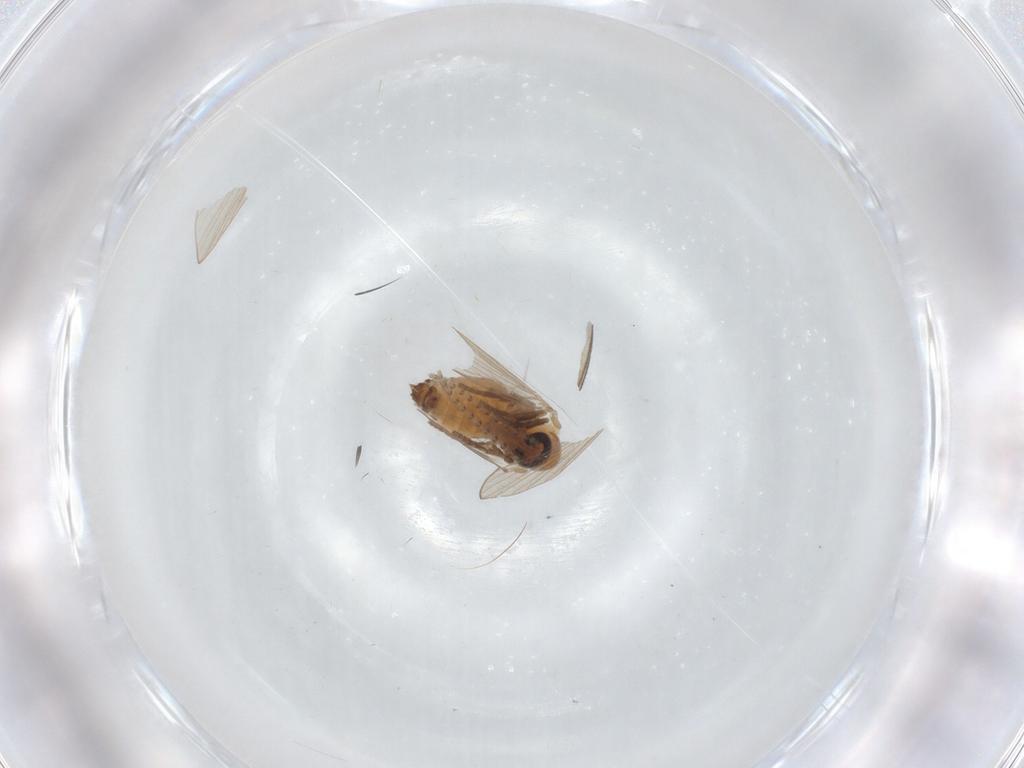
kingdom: Animalia
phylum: Arthropoda
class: Insecta
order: Diptera
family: Psychodidae
